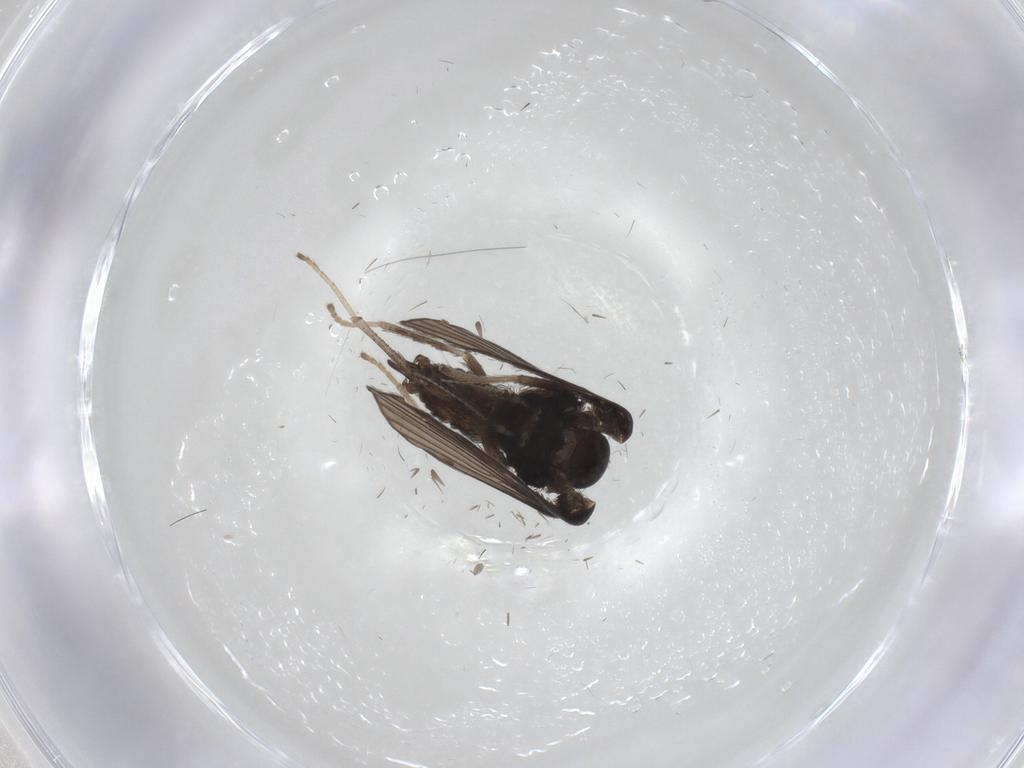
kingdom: Animalia
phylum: Arthropoda
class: Insecta
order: Diptera
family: Psychodidae
